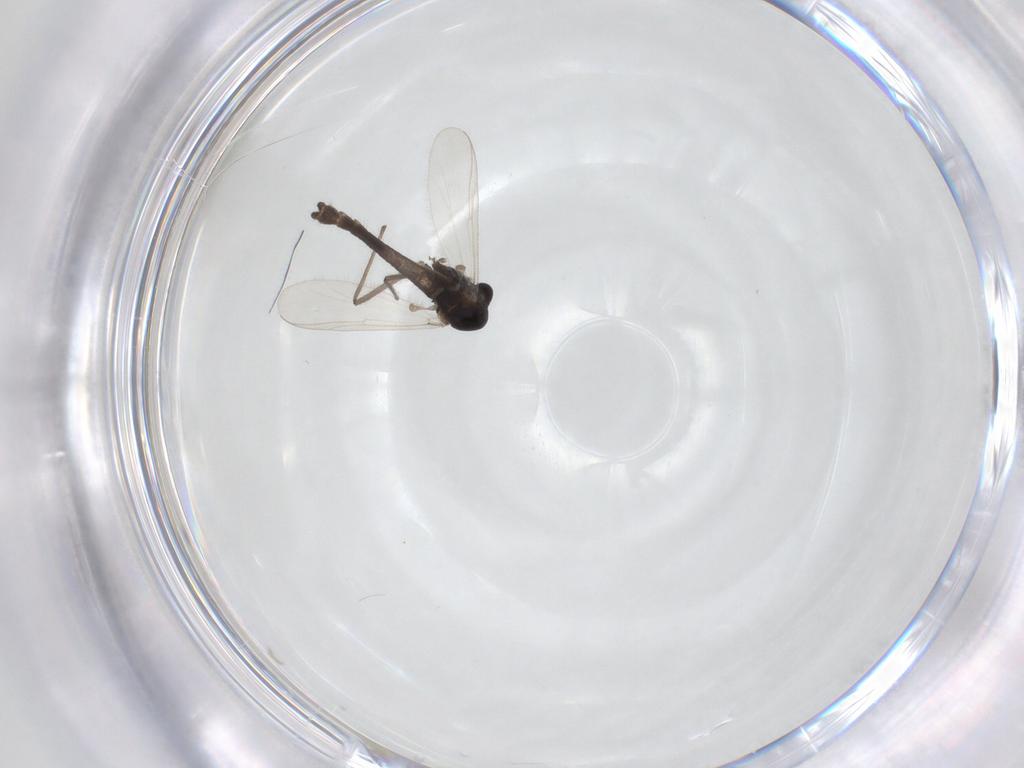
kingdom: Animalia
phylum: Arthropoda
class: Insecta
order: Diptera
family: Chironomidae
